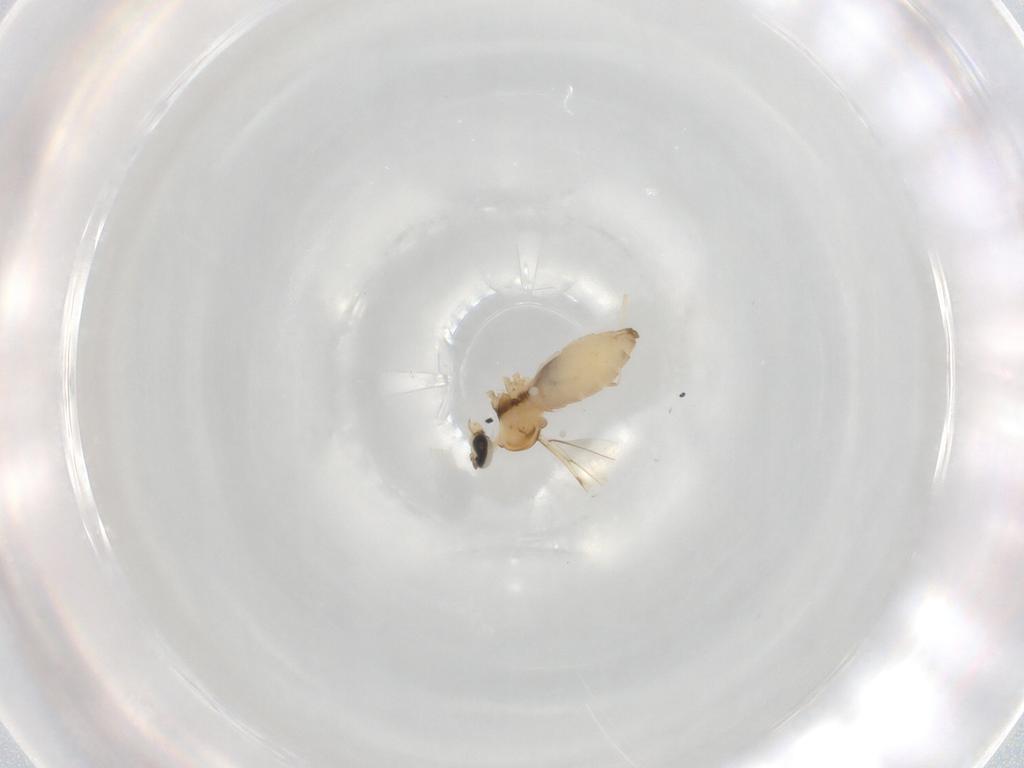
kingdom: Animalia
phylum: Arthropoda
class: Insecta
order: Diptera
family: Cecidomyiidae
